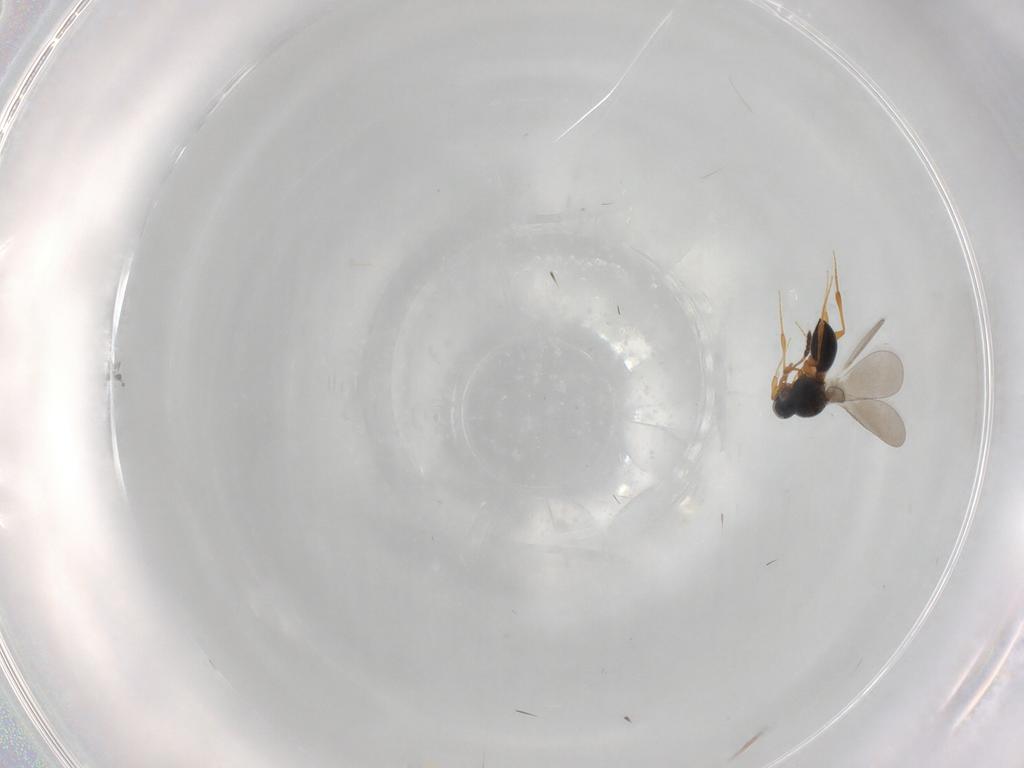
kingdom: Animalia
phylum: Arthropoda
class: Insecta
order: Hymenoptera
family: Platygastridae
